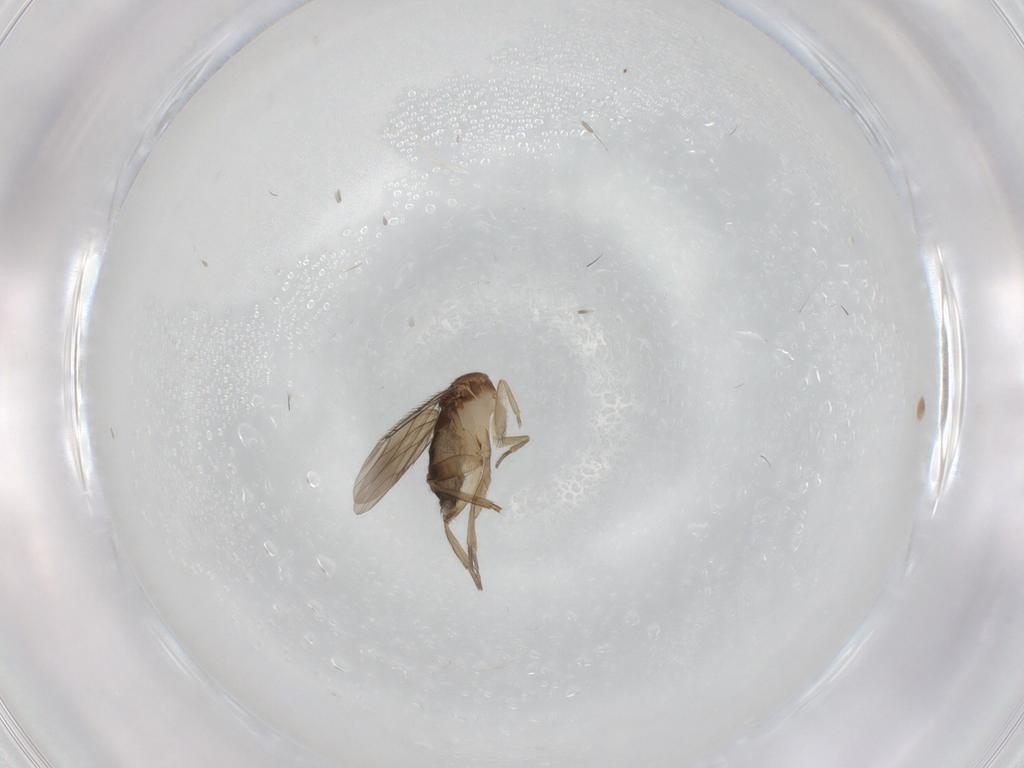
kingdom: Animalia
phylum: Arthropoda
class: Insecta
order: Diptera
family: Phoridae
